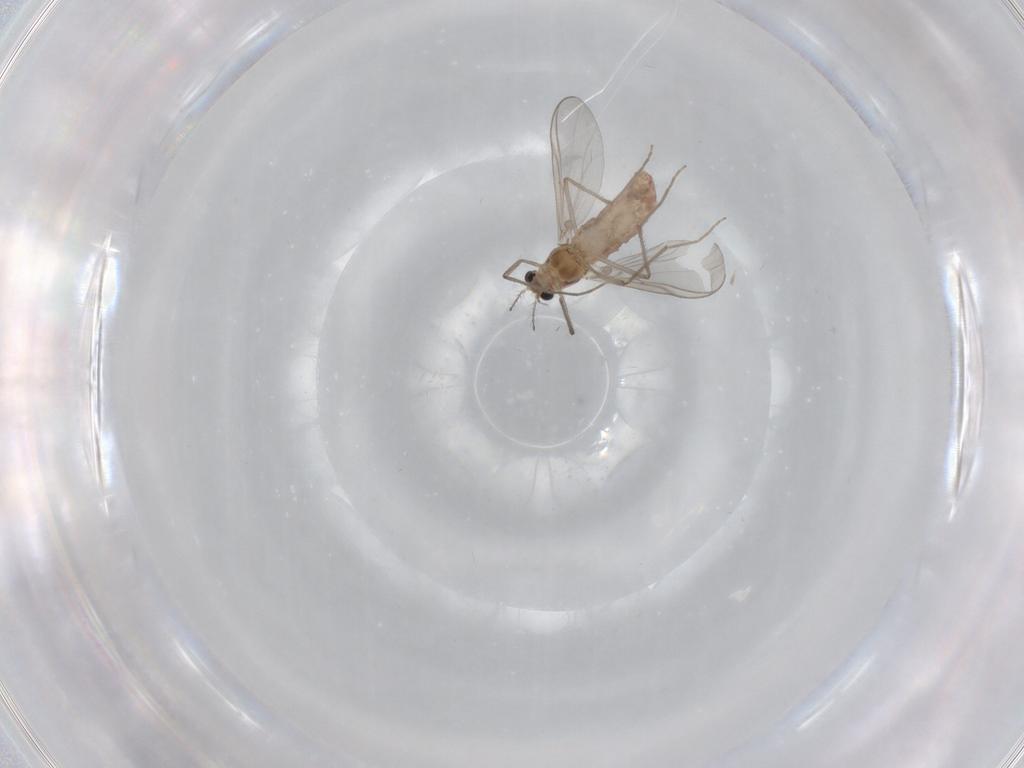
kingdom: Animalia
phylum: Arthropoda
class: Insecta
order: Diptera
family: Chironomidae
